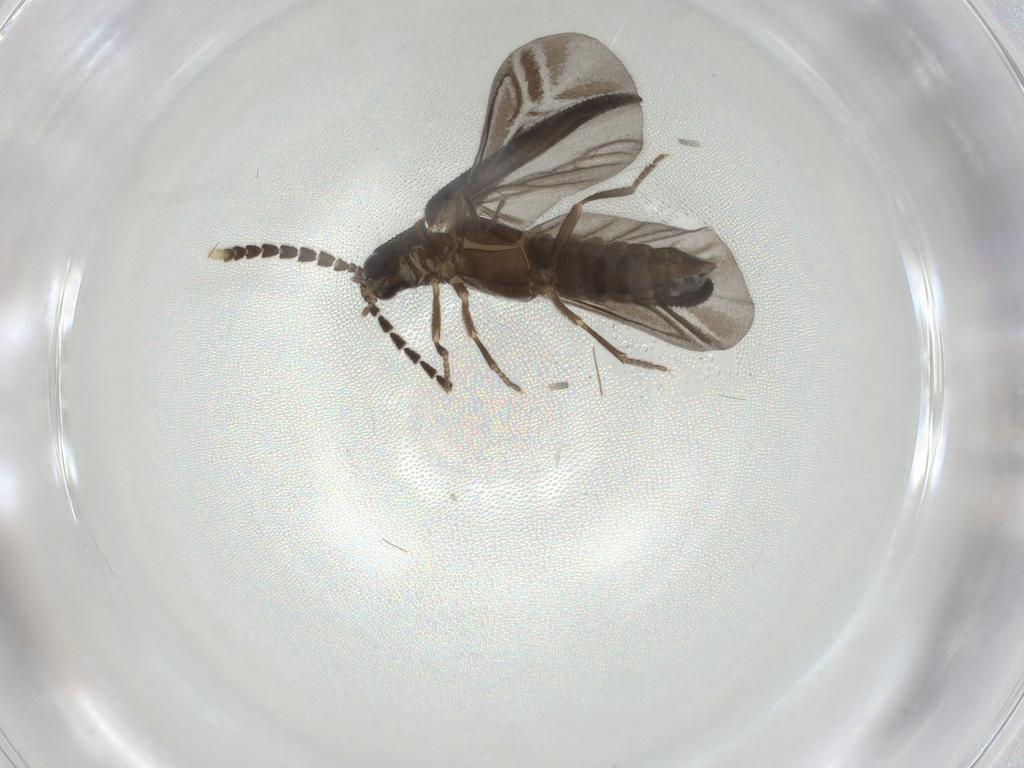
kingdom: Animalia
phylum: Arthropoda
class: Insecta
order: Coleoptera
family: Lycidae
